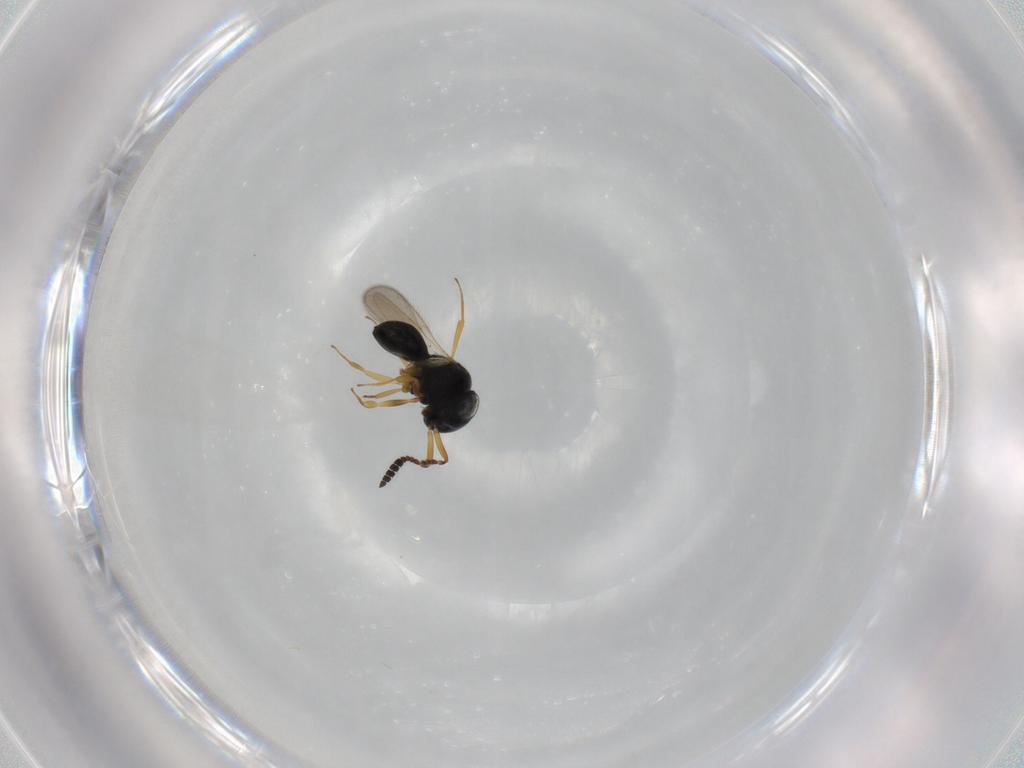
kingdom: Animalia
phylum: Arthropoda
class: Insecta
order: Hymenoptera
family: Scelionidae
